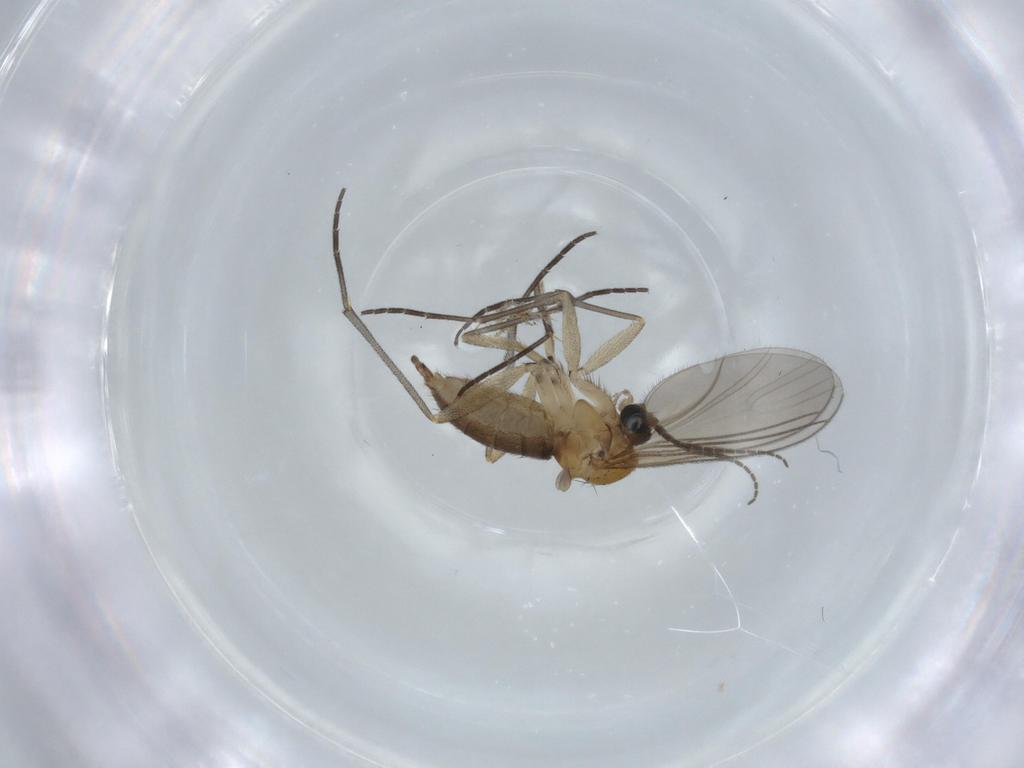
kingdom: Animalia
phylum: Arthropoda
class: Insecta
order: Diptera
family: Sciaridae
